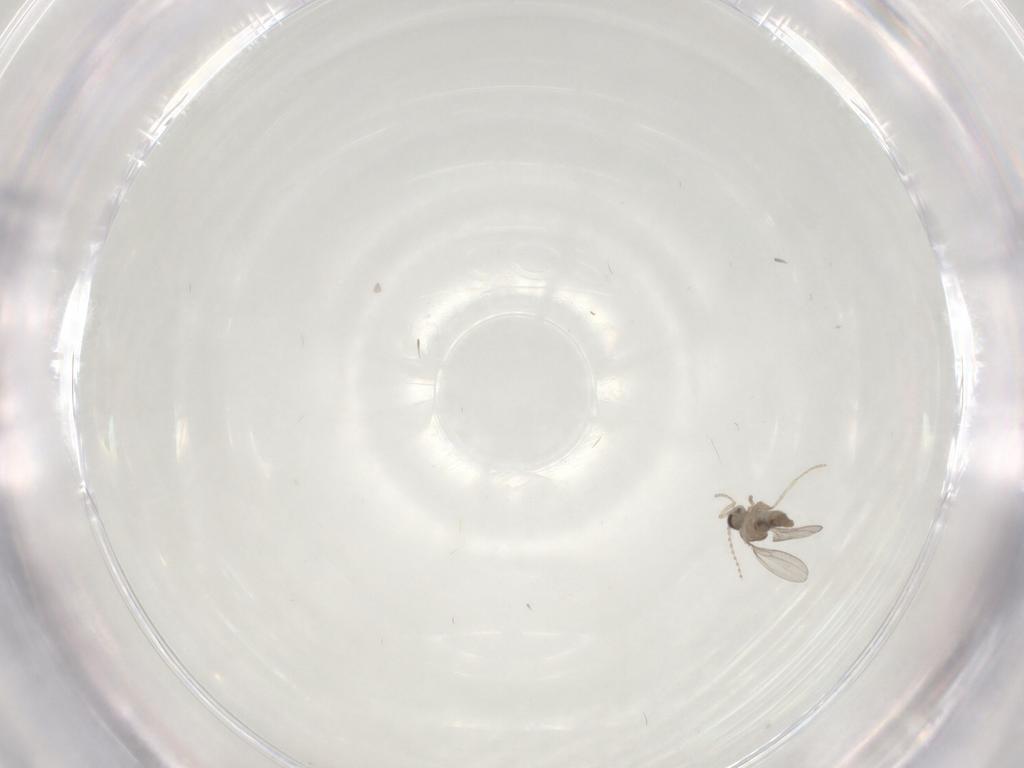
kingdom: Animalia
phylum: Arthropoda
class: Insecta
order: Diptera
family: Cecidomyiidae
